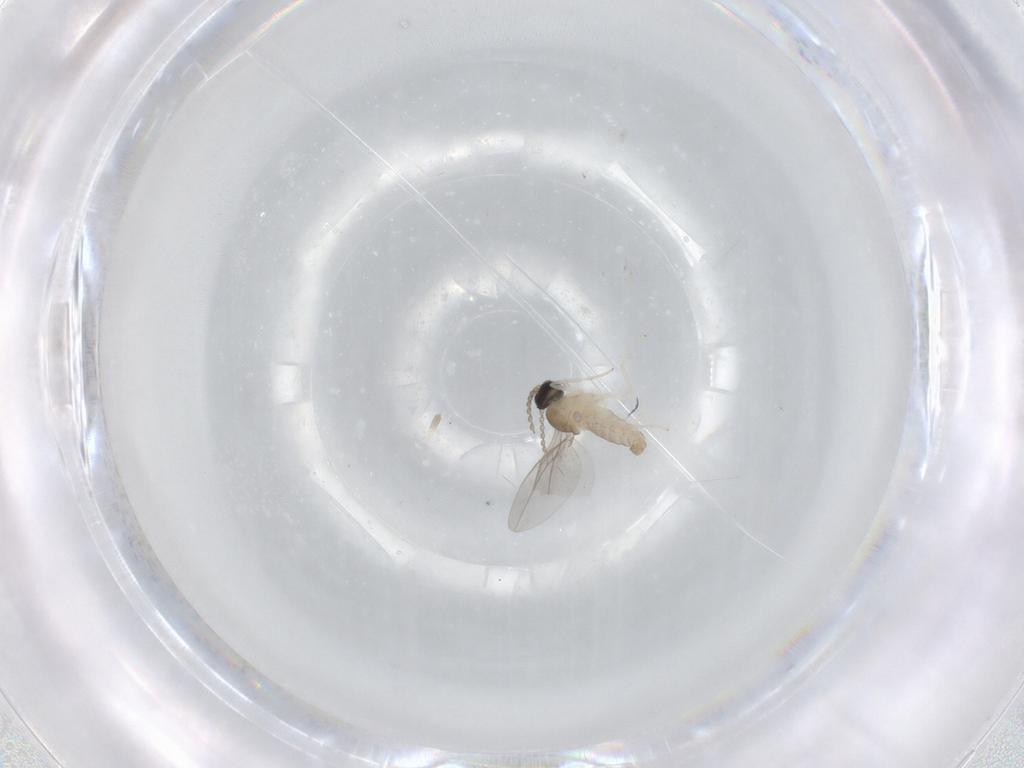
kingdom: Animalia
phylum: Arthropoda
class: Insecta
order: Diptera
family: Cecidomyiidae
